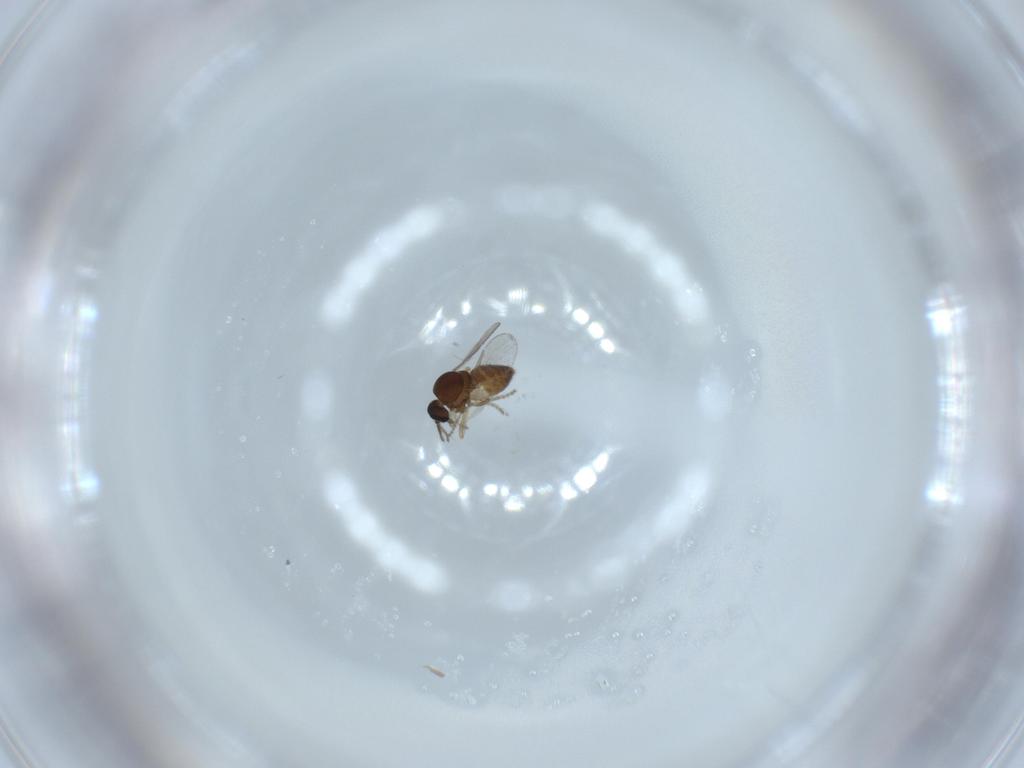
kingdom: Animalia
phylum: Arthropoda
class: Insecta
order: Diptera
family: Ceratopogonidae
